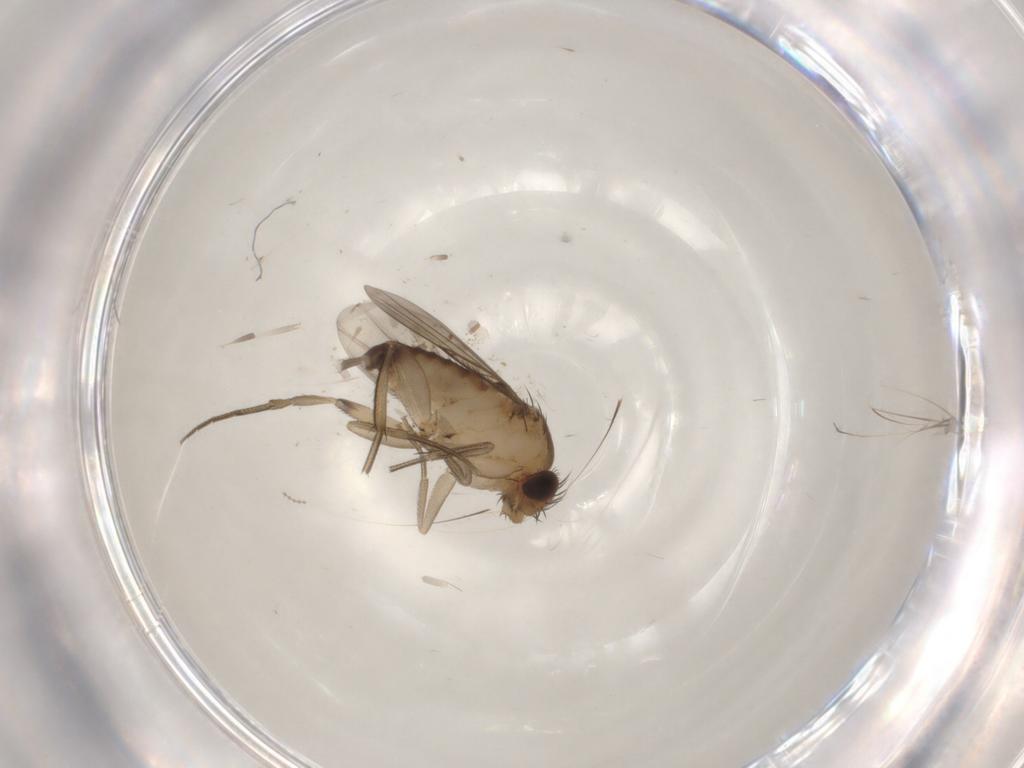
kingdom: Animalia
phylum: Arthropoda
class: Insecta
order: Diptera
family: Phoridae
